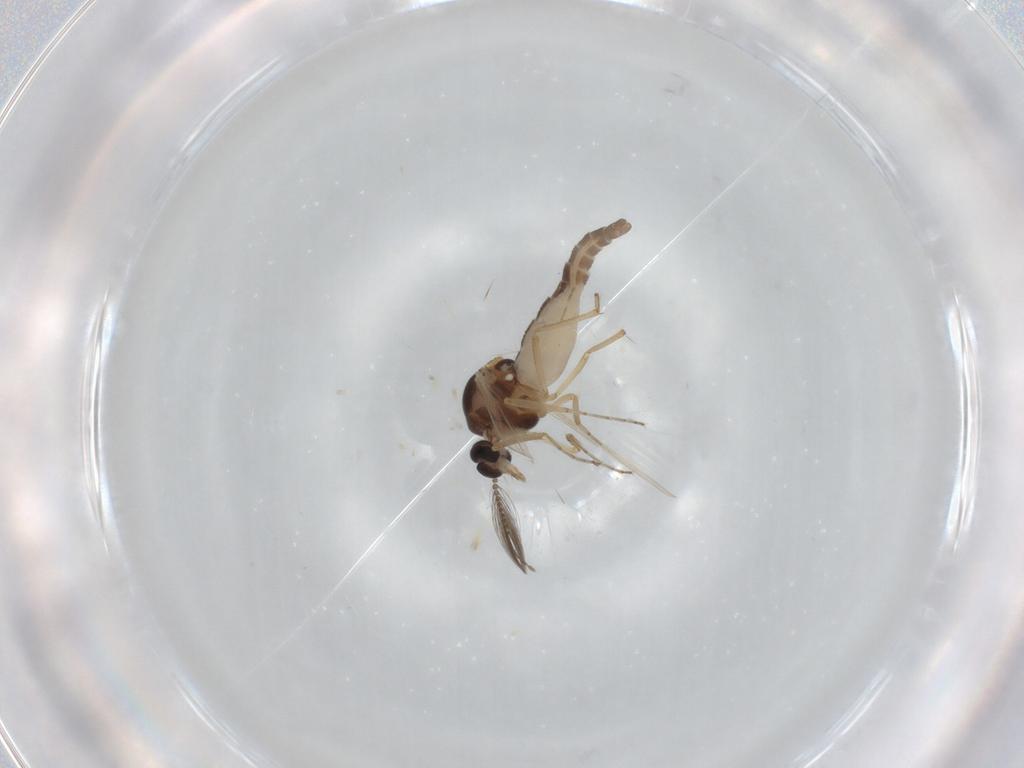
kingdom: Animalia
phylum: Arthropoda
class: Insecta
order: Diptera
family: Ceratopogonidae
